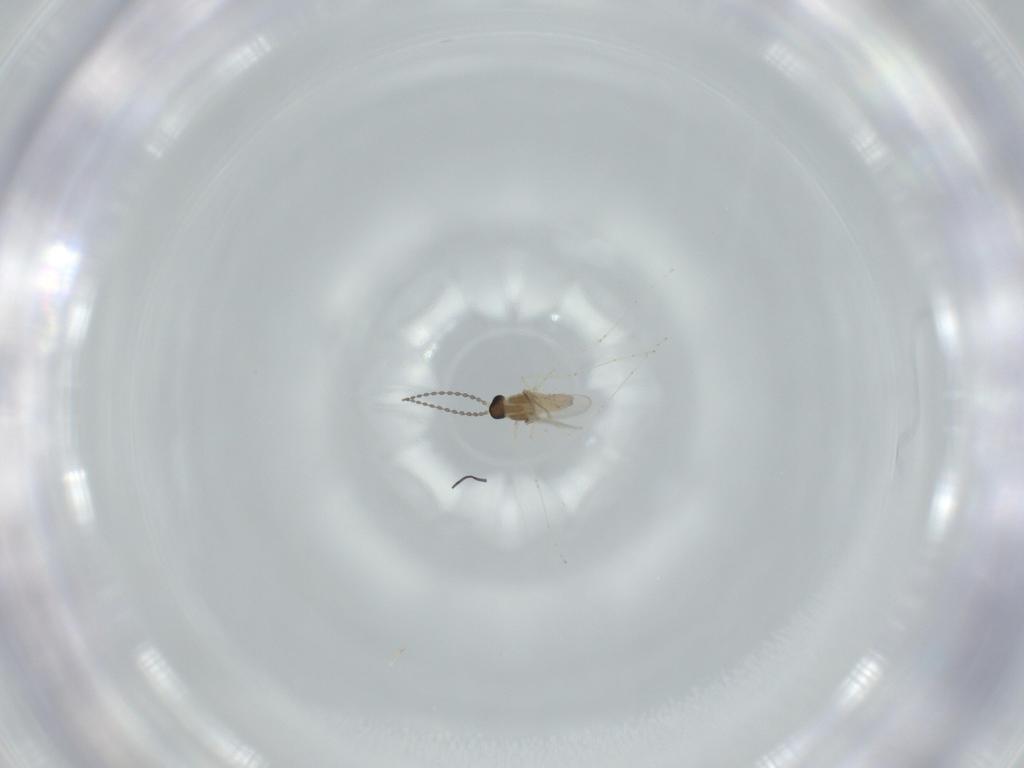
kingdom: Animalia
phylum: Arthropoda
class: Insecta
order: Diptera
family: Cecidomyiidae
